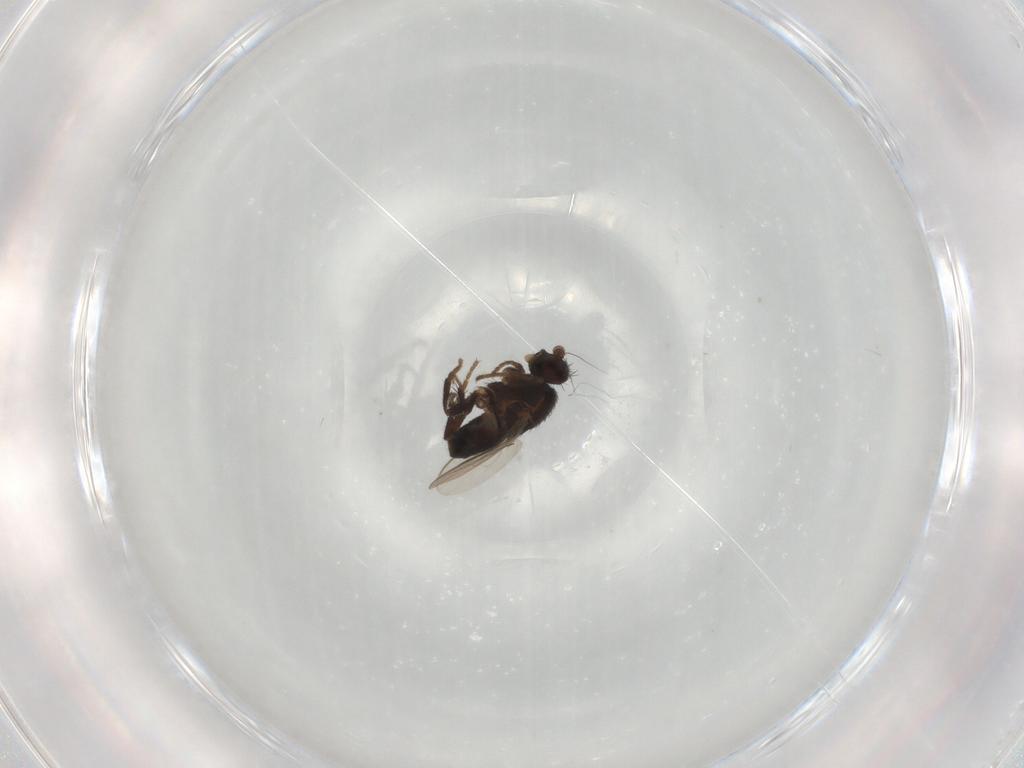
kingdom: Animalia
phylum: Arthropoda
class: Insecta
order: Diptera
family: Sphaeroceridae
